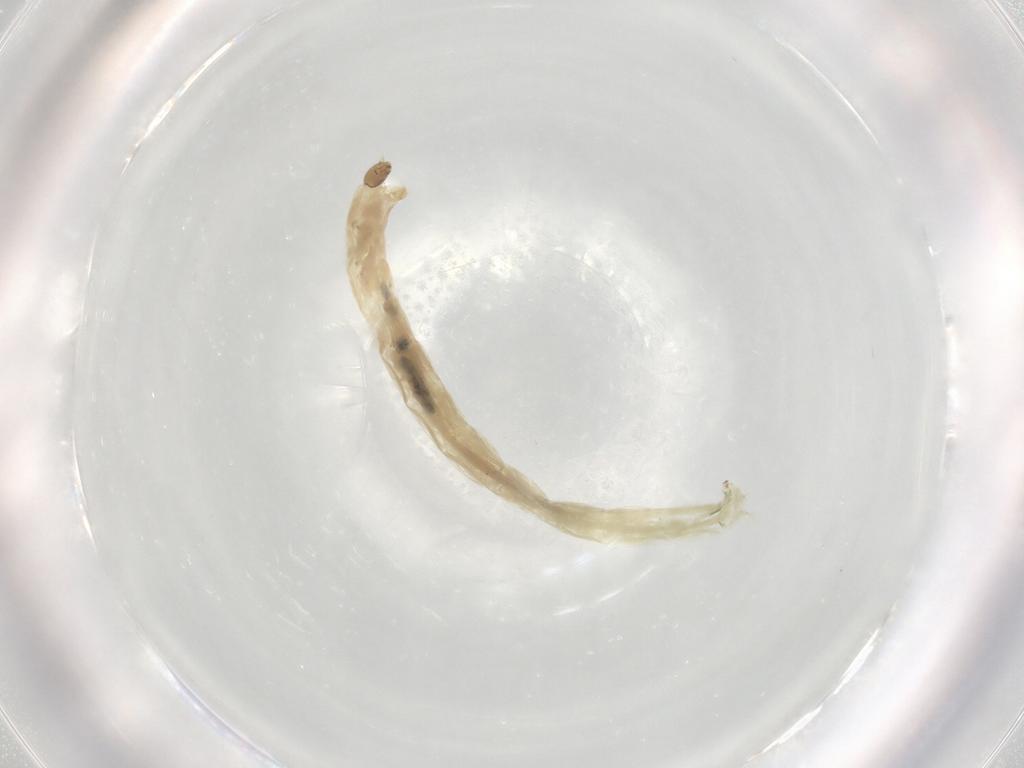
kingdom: Animalia
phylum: Arthropoda
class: Insecta
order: Diptera
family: Chironomidae
